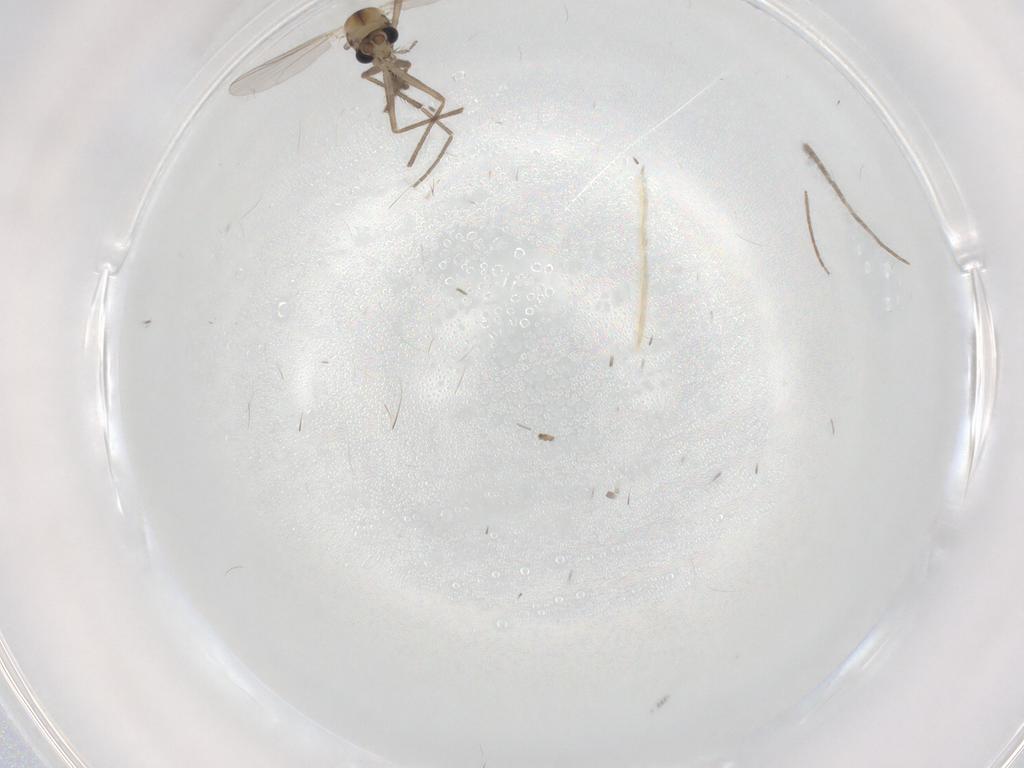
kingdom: Animalia
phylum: Arthropoda
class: Insecta
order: Diptera
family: Chironomidae
